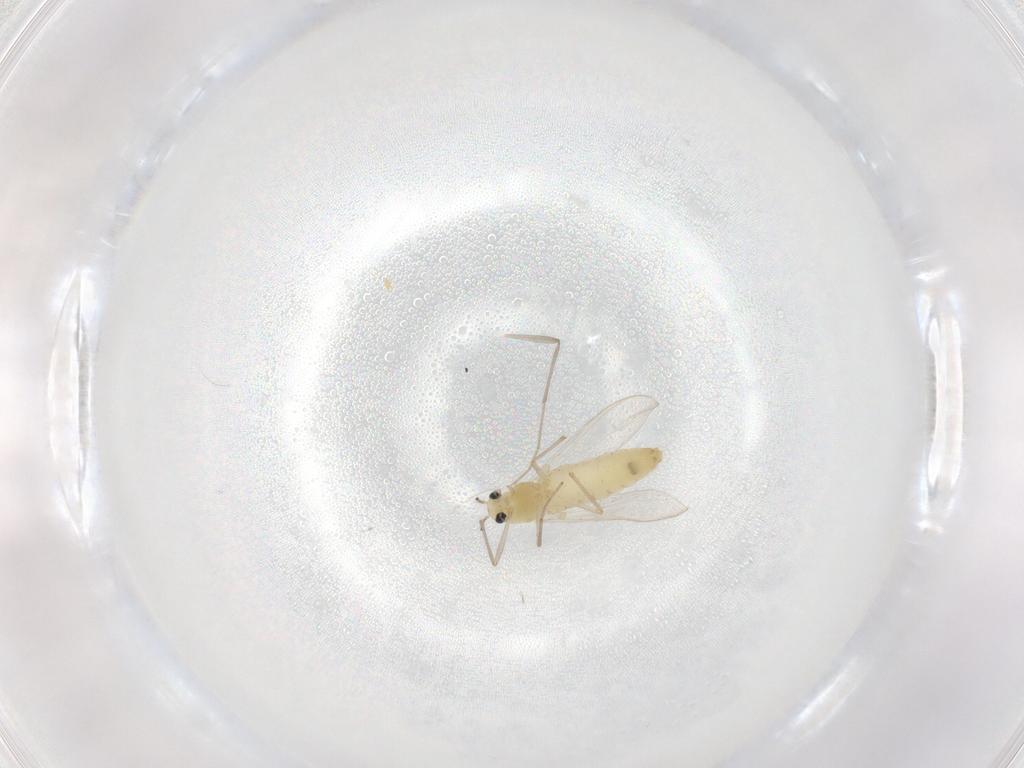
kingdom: Animalia
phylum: Arthropoda
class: Insecta
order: Diptera
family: Chironomidae
